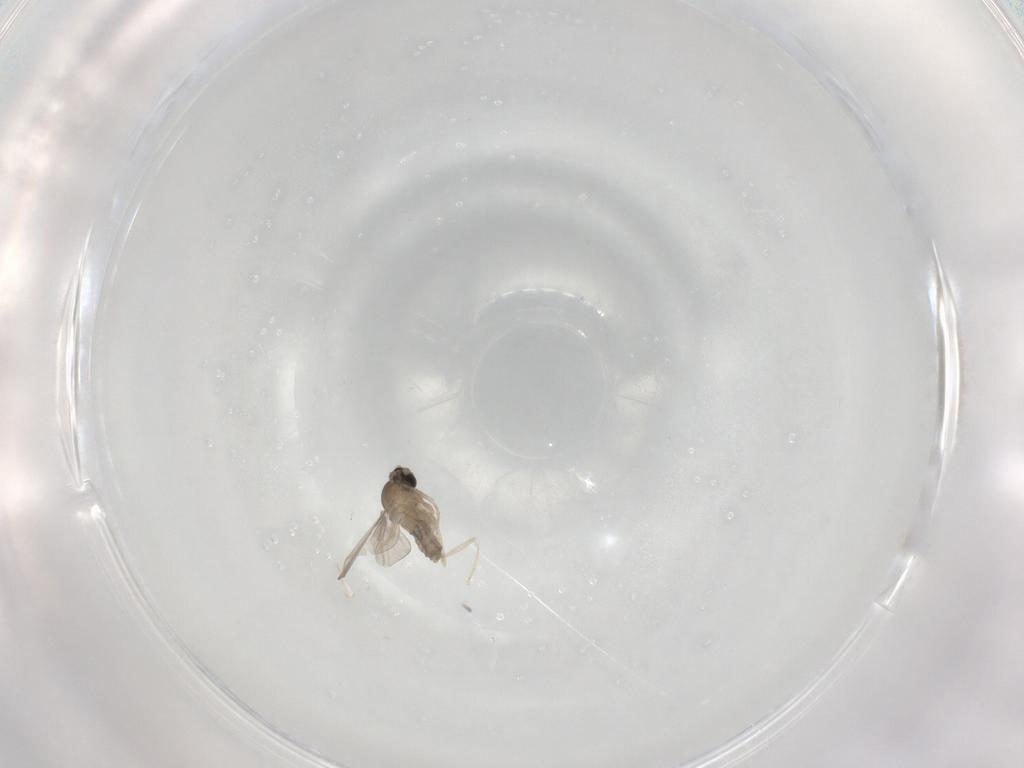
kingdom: Animalia
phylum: Arthropoda
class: Insecta
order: Diptera
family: Cecidomyiidae
